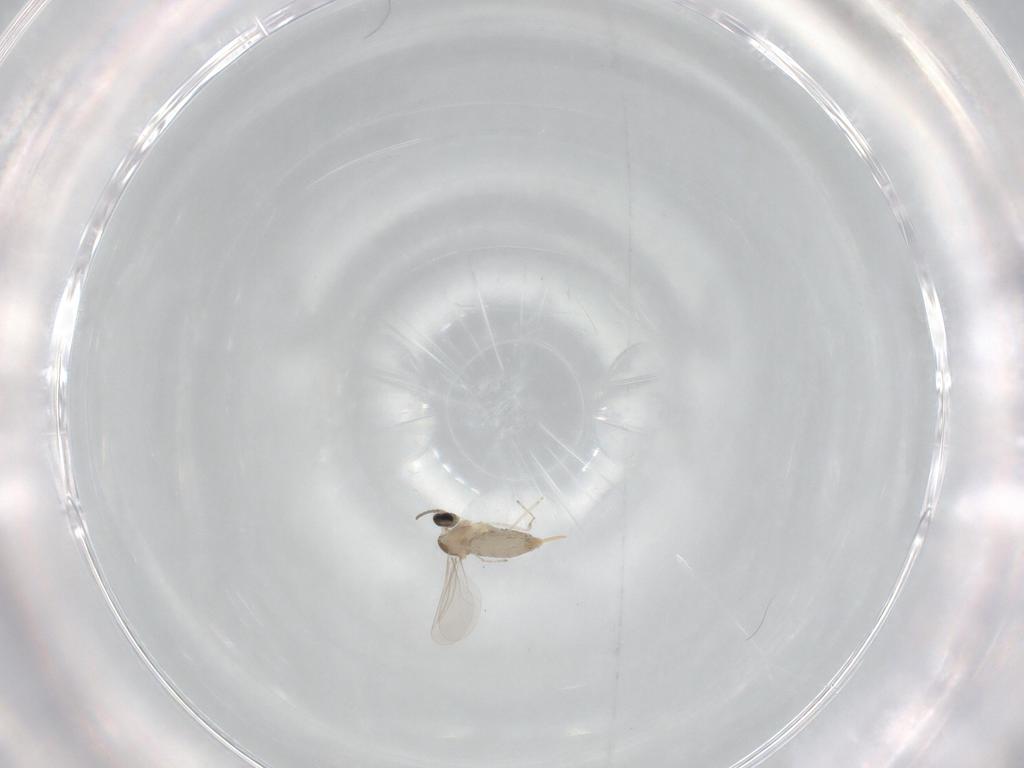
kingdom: Animalia
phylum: Arthropoda
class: Insecta
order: Diptera
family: Cecidomyiidae
